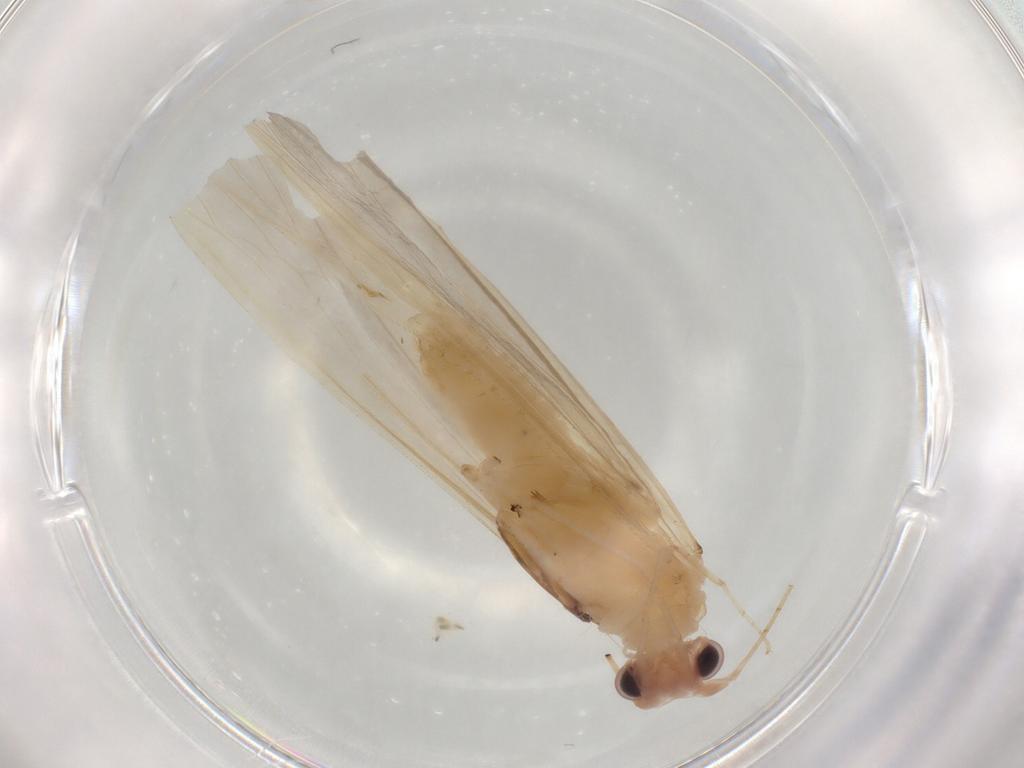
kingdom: Animalia
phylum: Arthropoda
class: Insecta
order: Trichoptera
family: Leptoceridae
